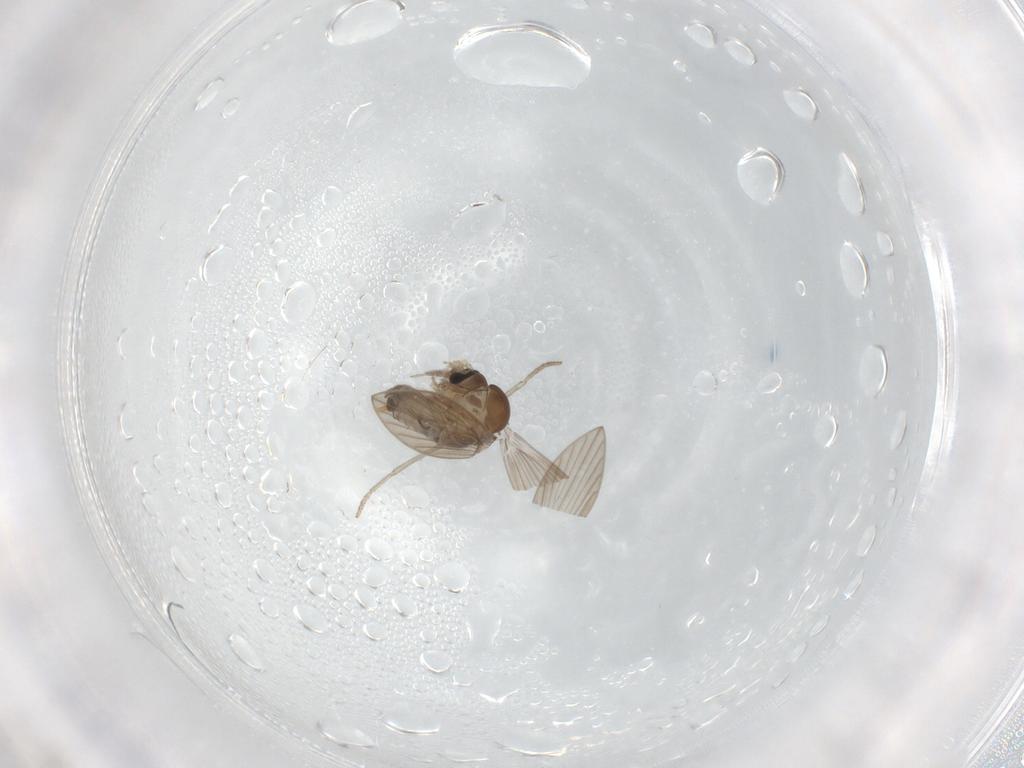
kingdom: Animalia
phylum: Arthropoda
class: Insecta
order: Diptera
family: Psychodidae
